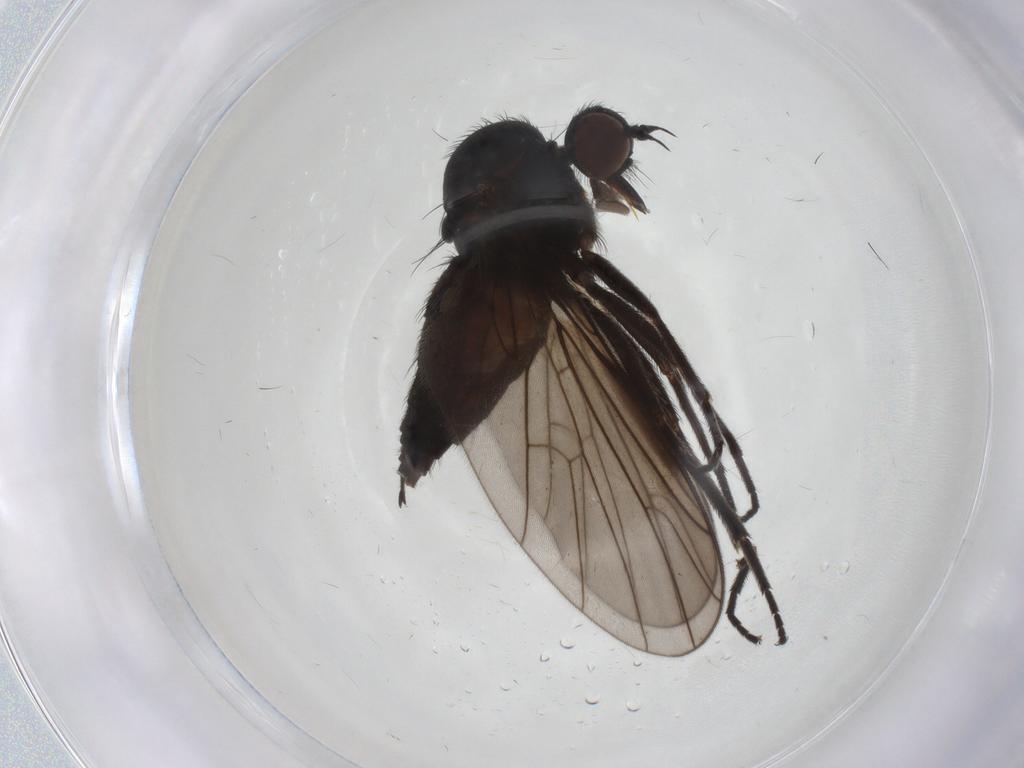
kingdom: Animalia
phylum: Arthropoda
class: Insecta
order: Diptera
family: Empididae
